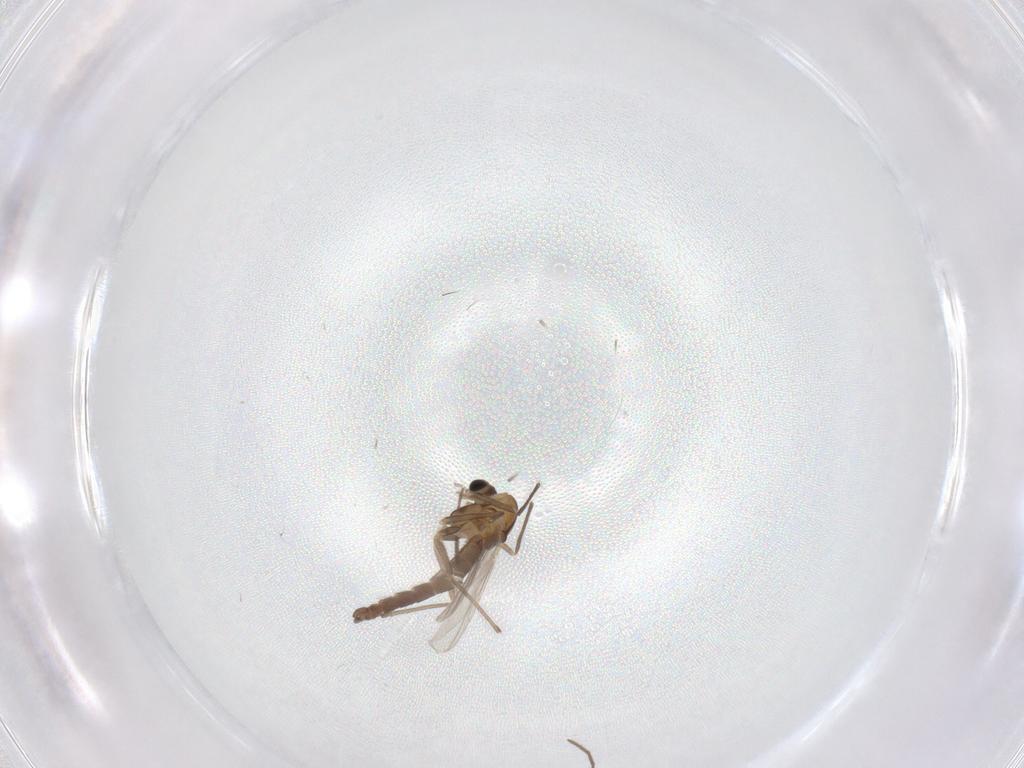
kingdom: Animalia
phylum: Arthropoda
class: Insecta
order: Diptera
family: Chironomidae
